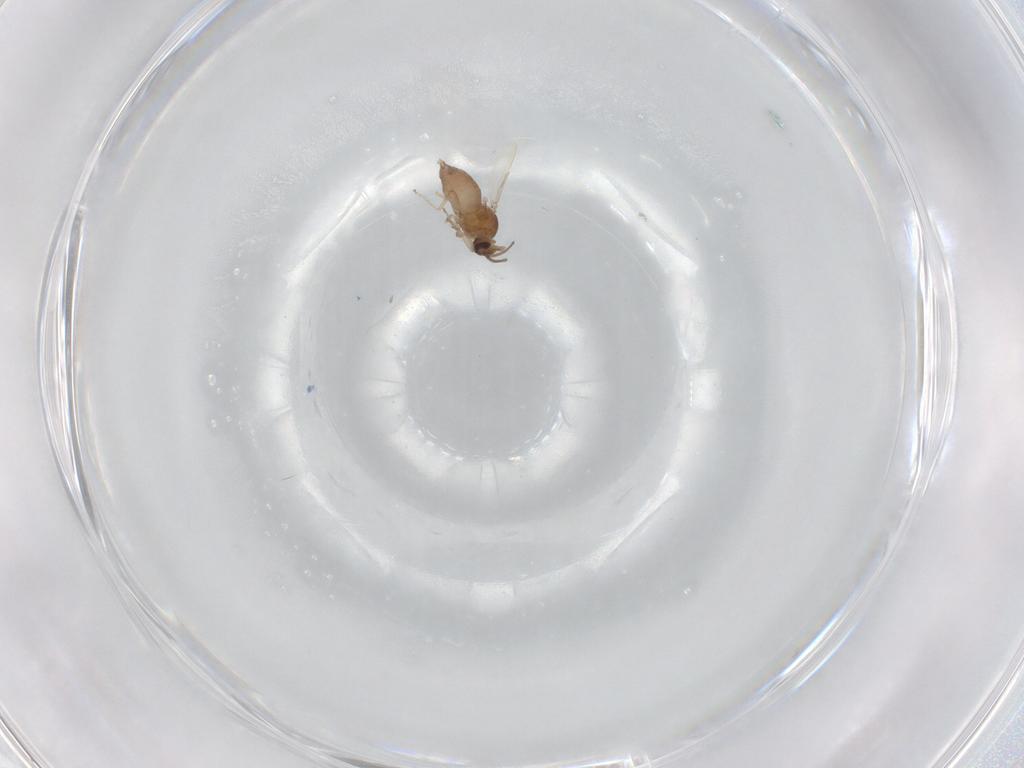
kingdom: Animalia
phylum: Arthropoda
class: Insecta
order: Diptera
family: Ceratopogonidae
